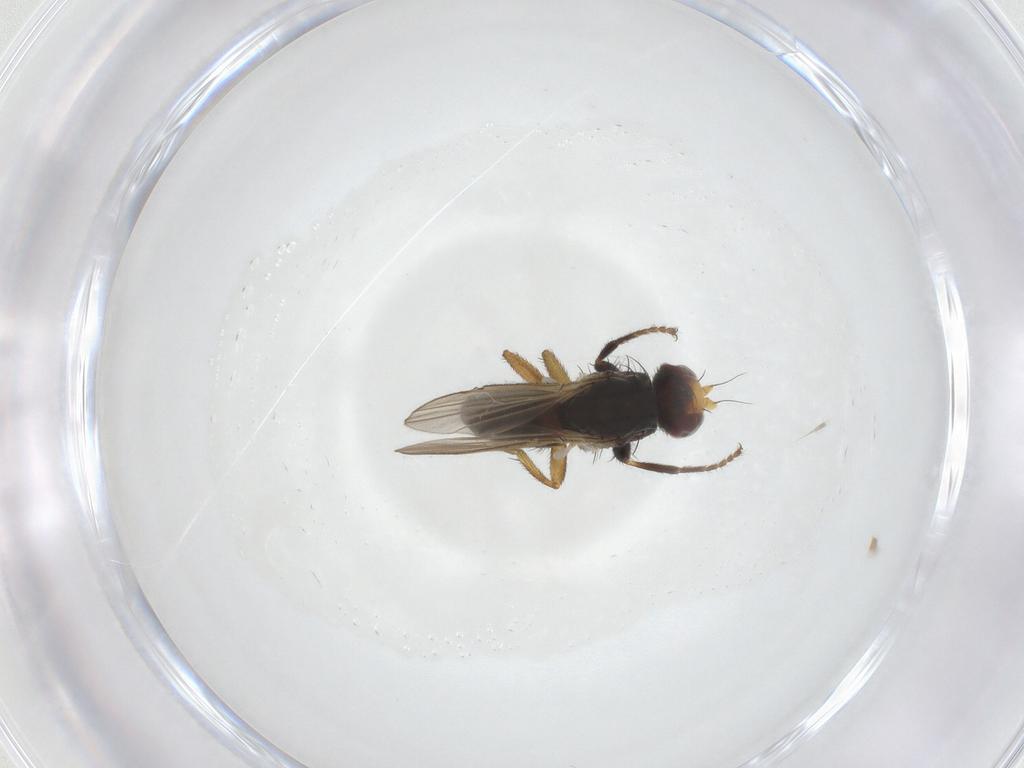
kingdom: Animalia
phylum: Arthropoda
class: Insecta
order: Diptera
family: Heleomyzidae
